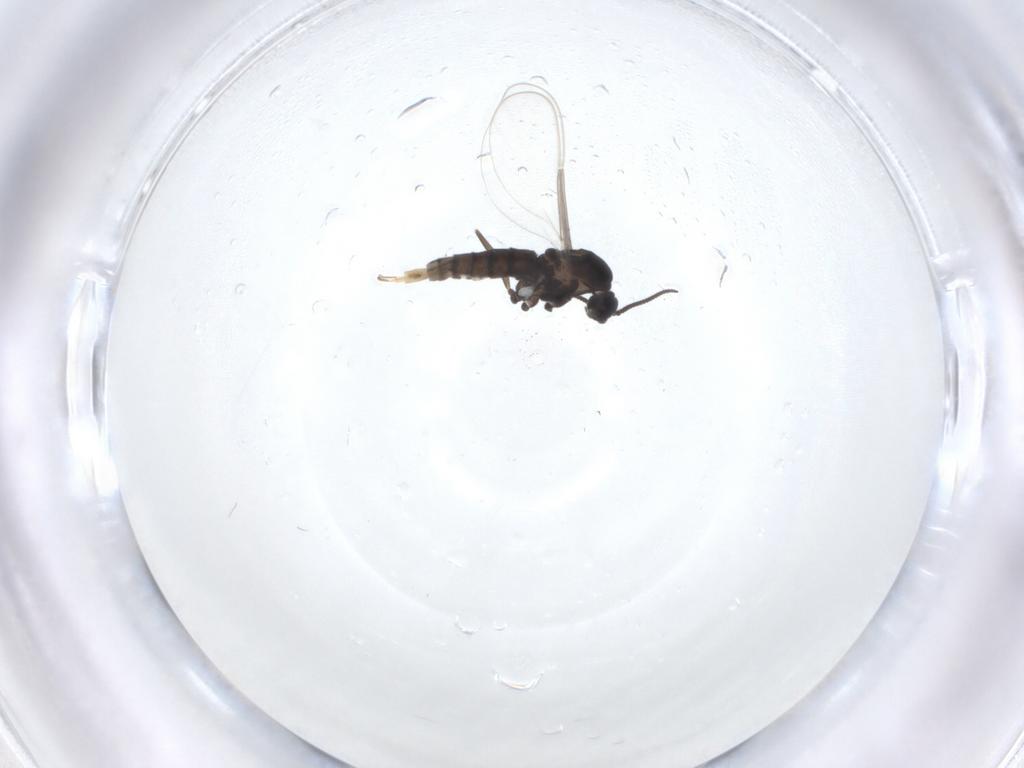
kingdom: Animalia
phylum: Arthropoda
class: Insecta
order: Diptera
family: Cecidomyiidae
